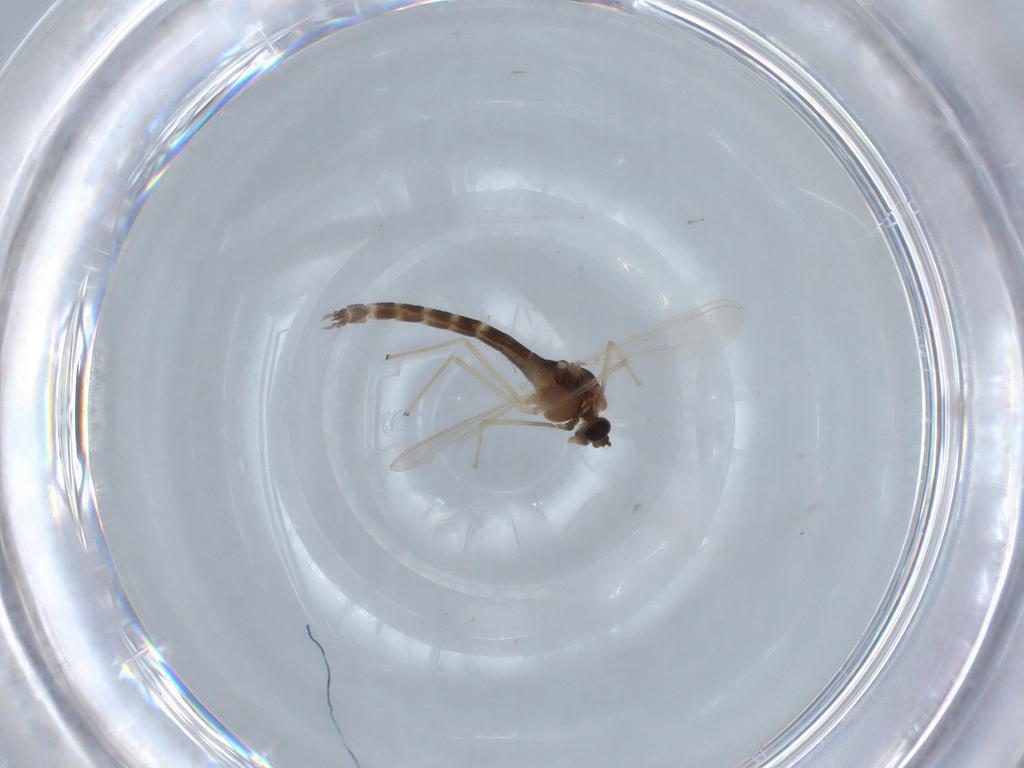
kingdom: Animalia
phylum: Arthropoda
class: Insecta
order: Diptera
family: Chironomidae
